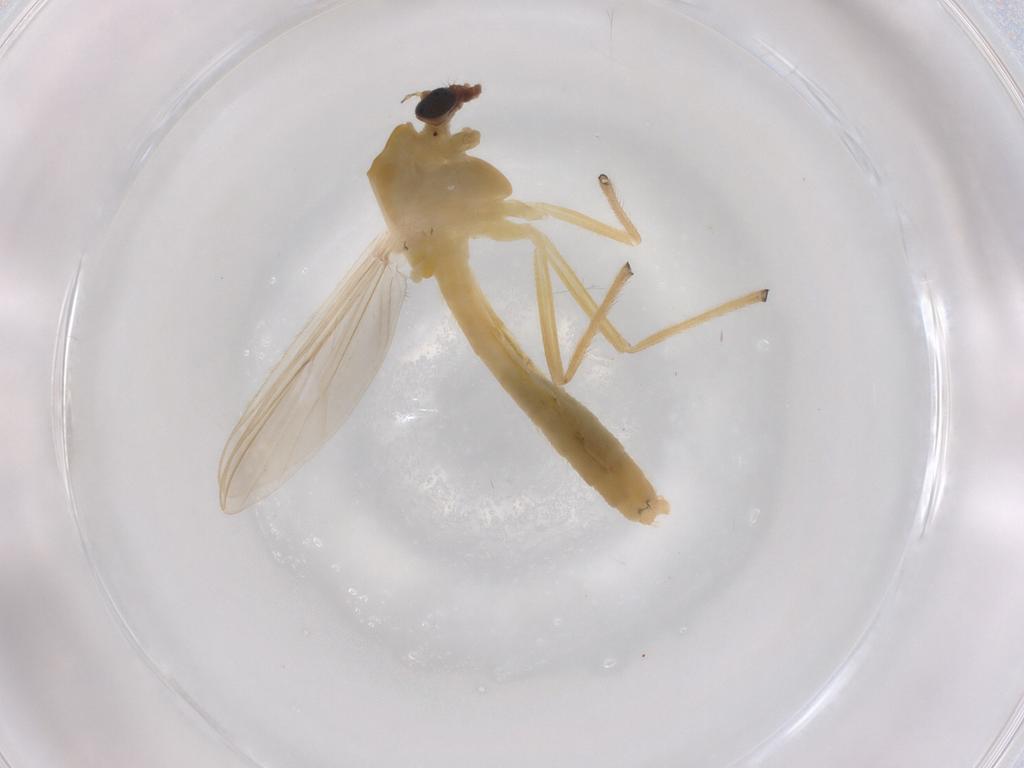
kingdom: Animalia
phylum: Arthropoda
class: Insecta
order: Diptera
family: Chironomidae
